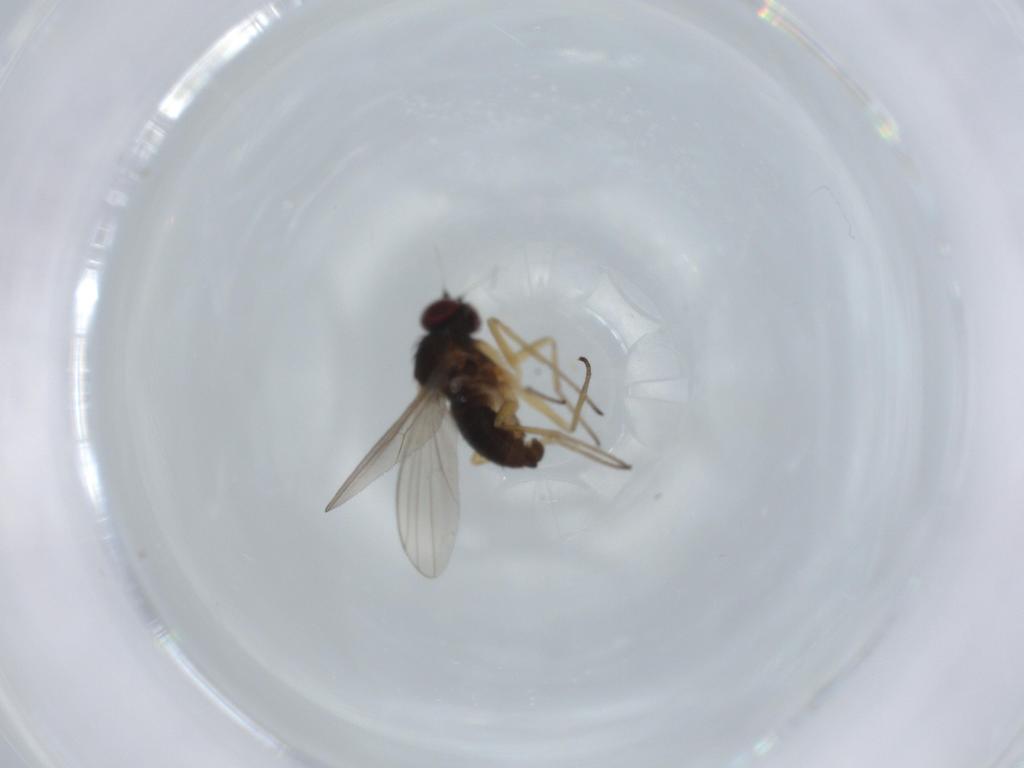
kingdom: Animalia
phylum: Arthropoda
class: Insecta
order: Diptera
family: Dolichopodidae
